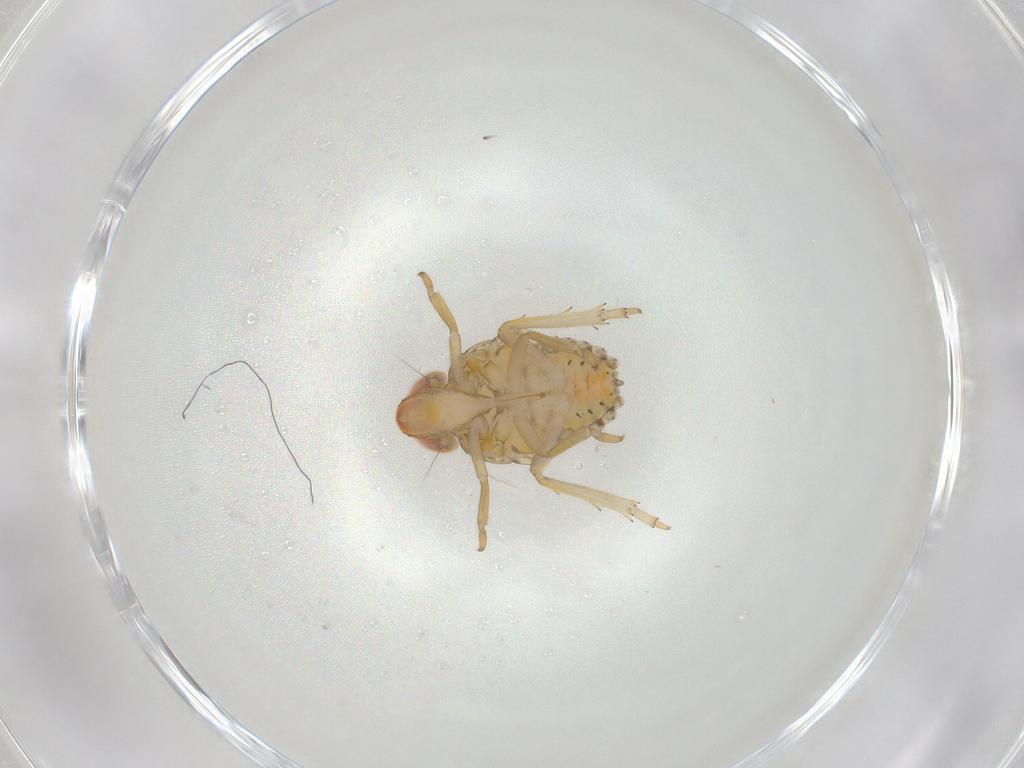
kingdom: Animalia
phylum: Arthropoda
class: Insecta
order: Hemiptera
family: Fulgoroidea_incertae_sedis
